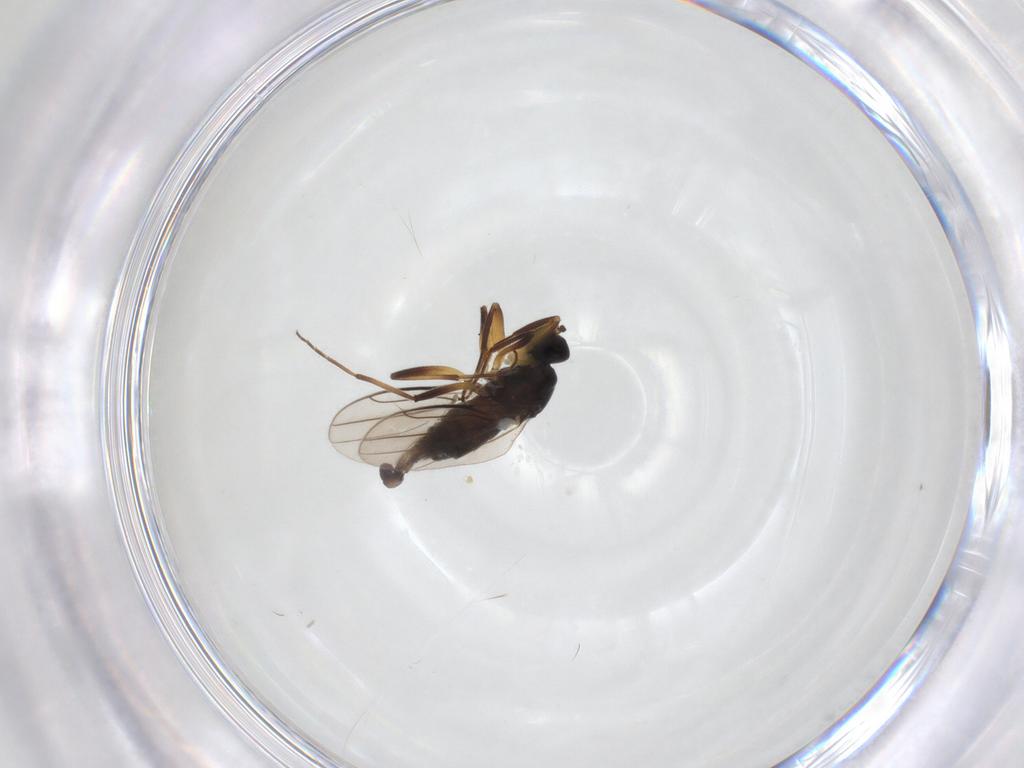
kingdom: Animalia
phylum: Arthropoda
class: Insecta
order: Diptera
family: Hybotidae
